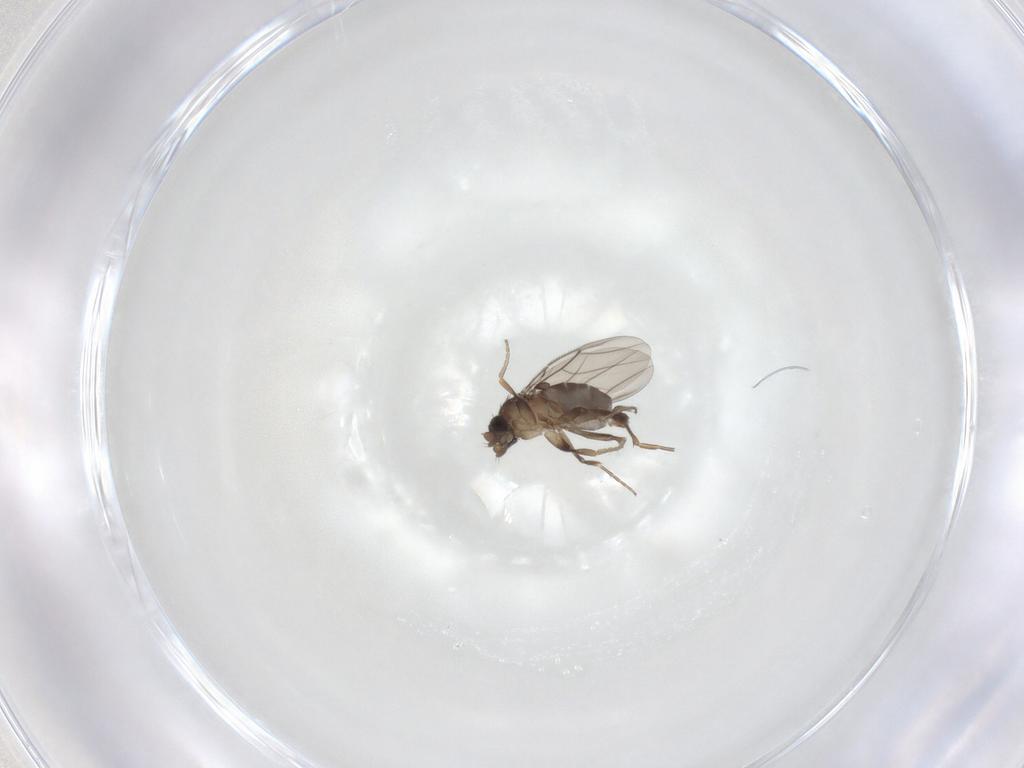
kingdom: Animalia
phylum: Arthropoda
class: Insecta
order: Diptera
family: Phoridae
